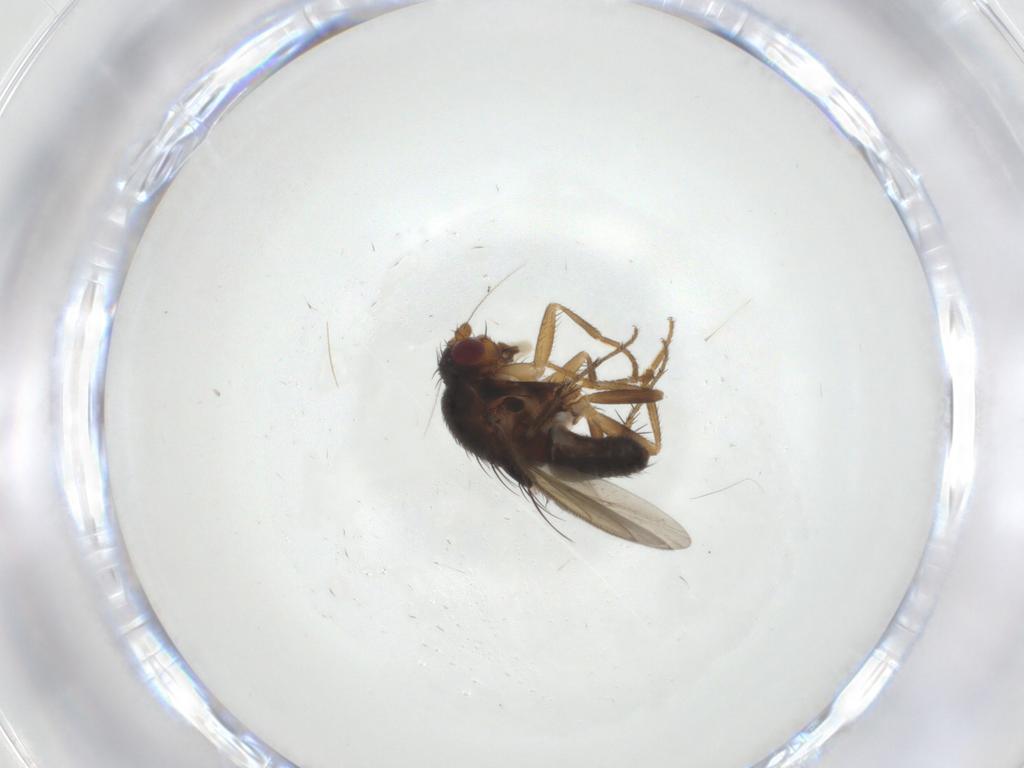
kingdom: Animalia
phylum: Arthropoda
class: Insecta
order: Diptera
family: Sphaeroceridae
